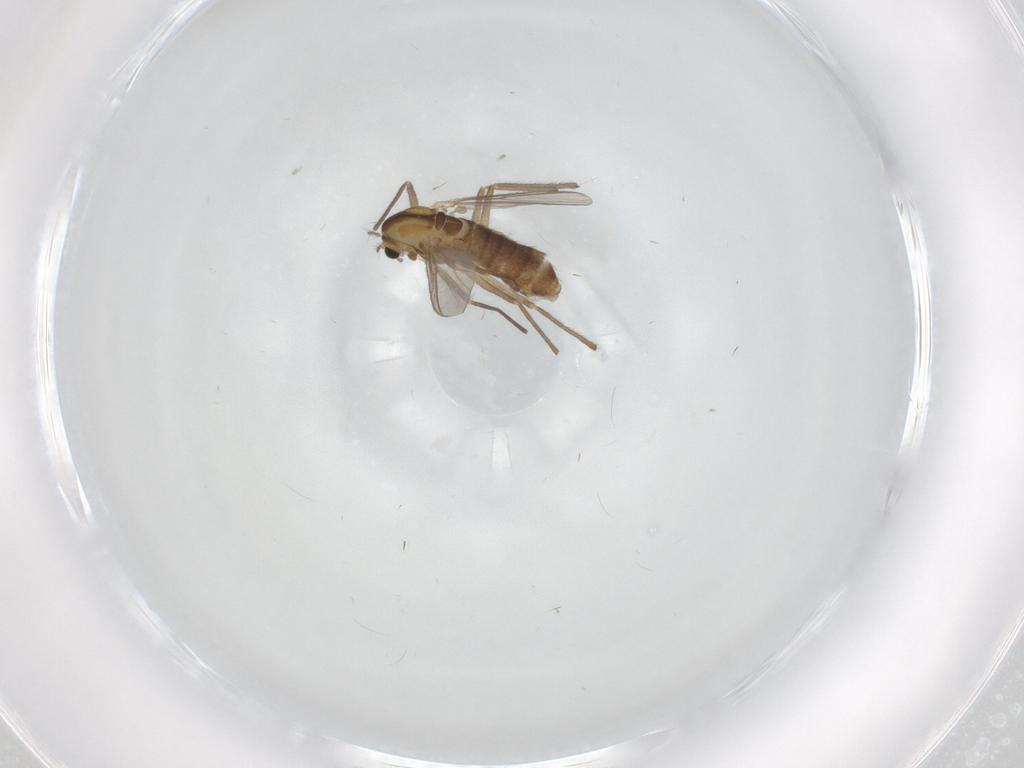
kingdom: Animalia
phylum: Arthropoda
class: Insecta
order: Diptera
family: Chironomidae
